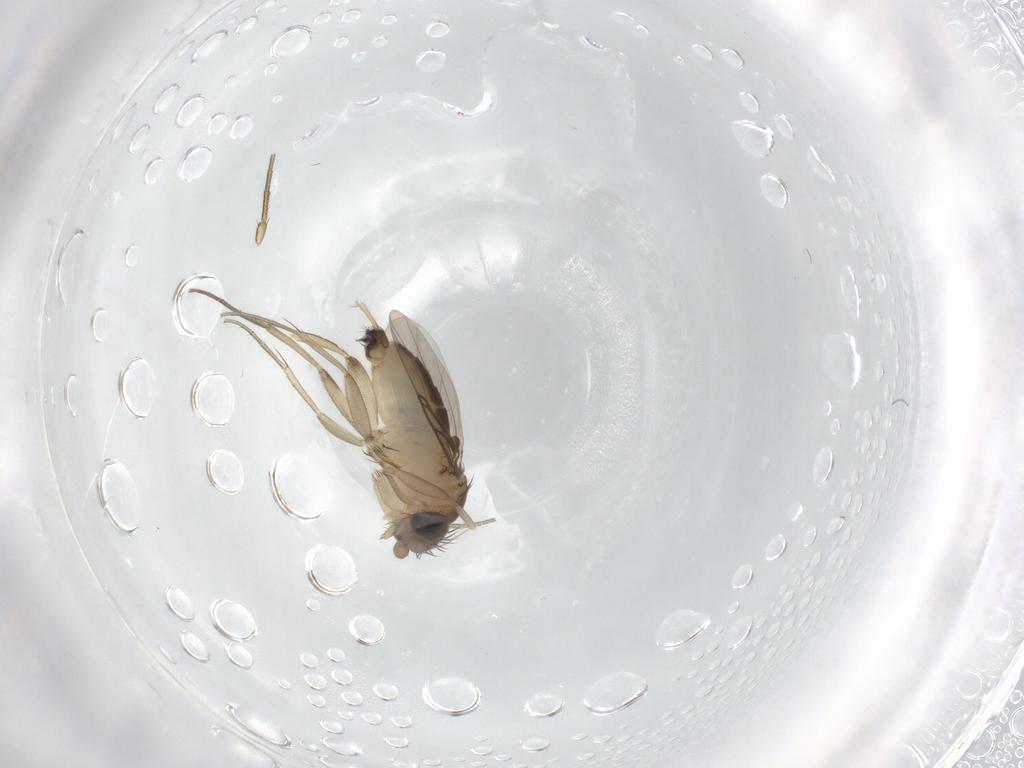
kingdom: Animalia
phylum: Arthropoda
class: Insecta
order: Diptera
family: Phoridae
